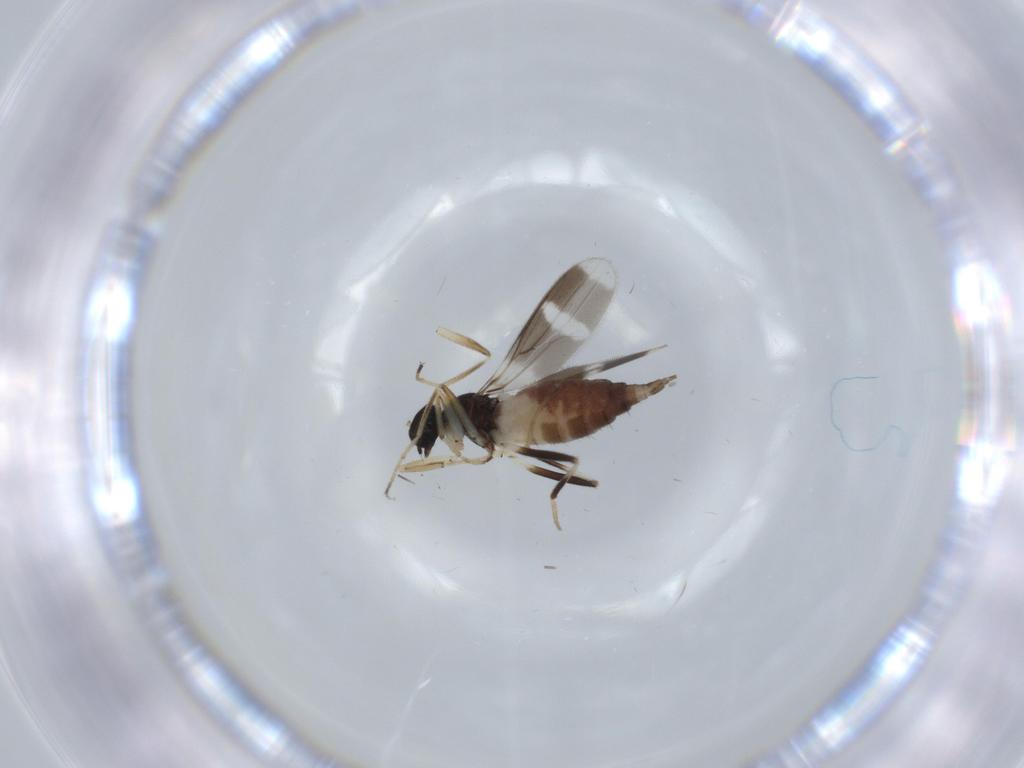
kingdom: Animalia
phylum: Arthropoda
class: Insecta
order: Diptera
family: Hybotidae
